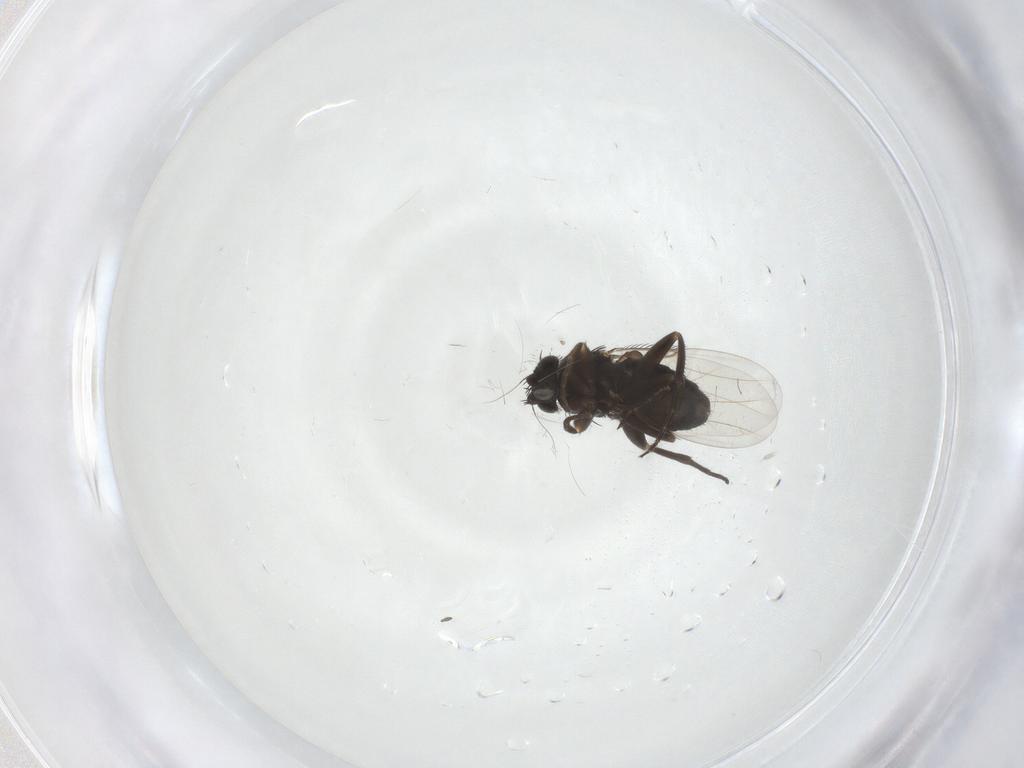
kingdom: Animalia
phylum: Arthropoda
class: Insecta
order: Diptera
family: Phoridae
